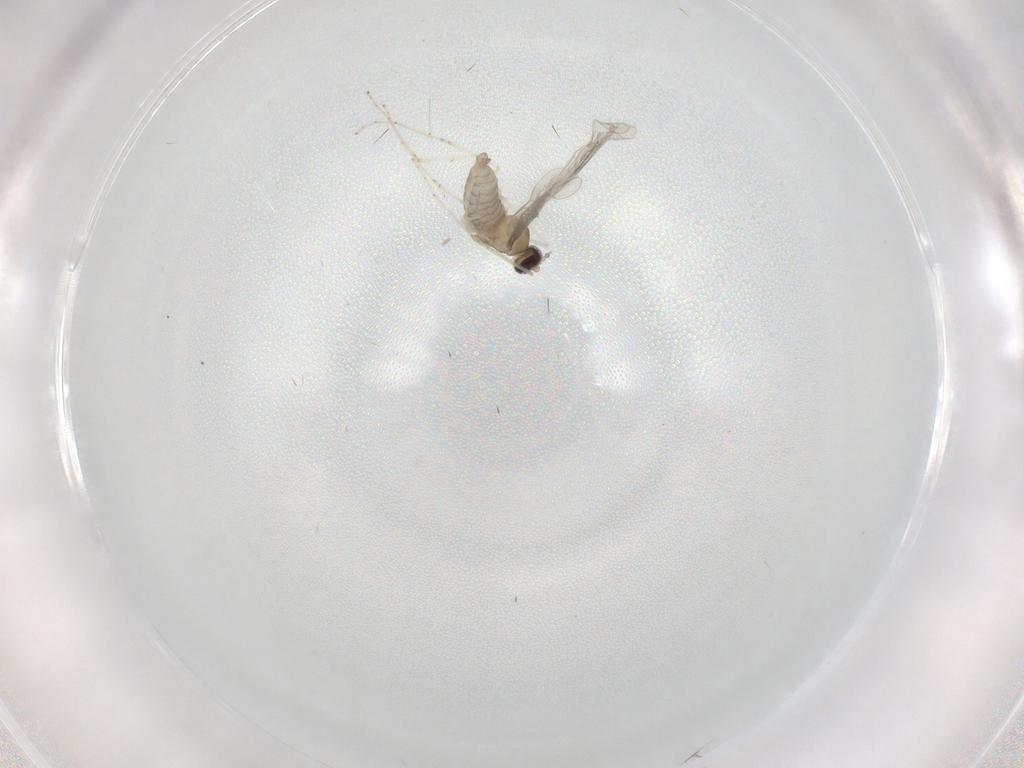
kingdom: Animalia
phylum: Arthropoda
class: Insecta
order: Diptera
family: Cecidomyiidae
